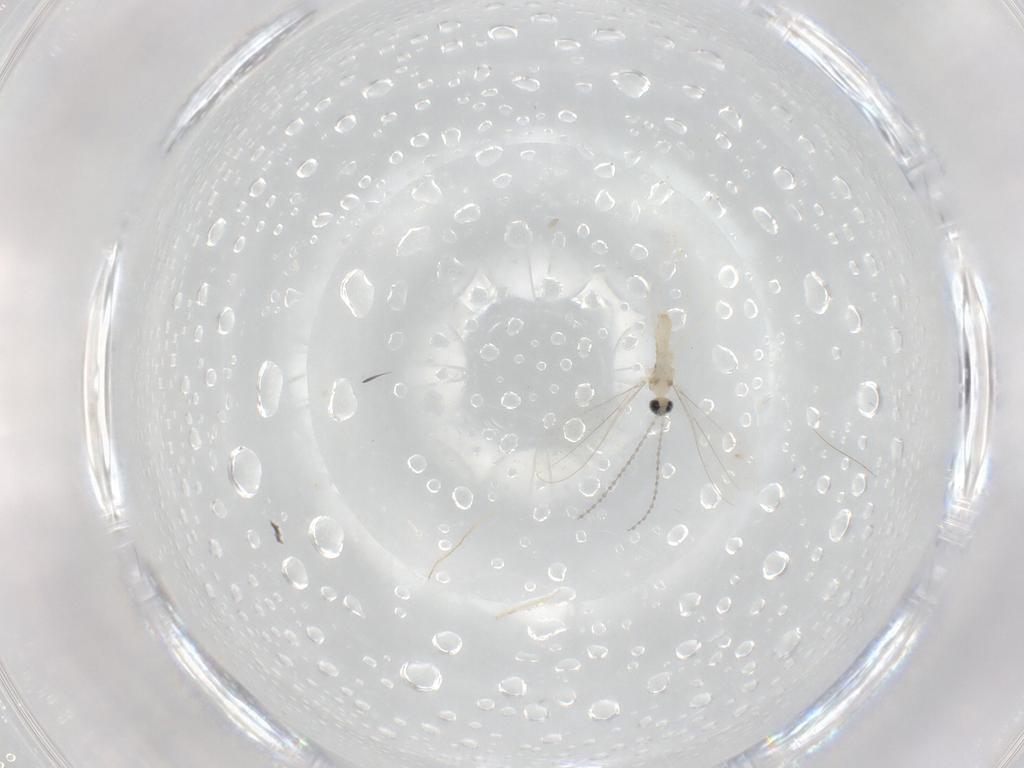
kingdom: Animalia
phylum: Arthropoda
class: Insecta
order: Diptera
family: Cecidomyiidae
